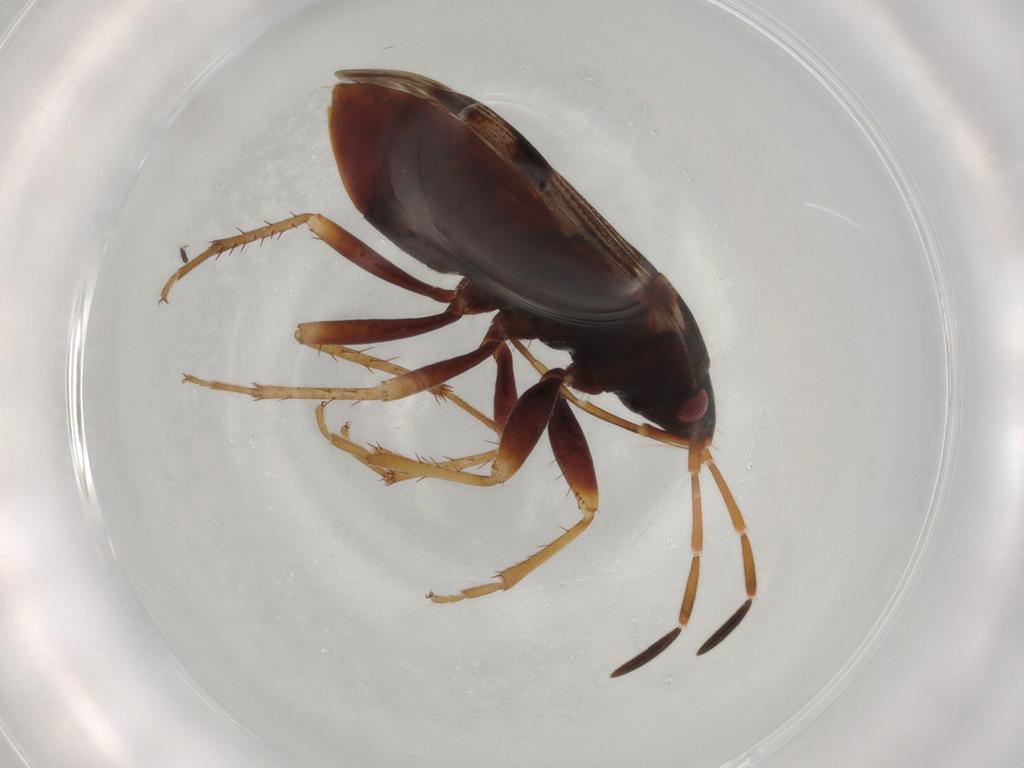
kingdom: Animalia
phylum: Arthropoda
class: Insecta
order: Hemiptera
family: Rhyparochromidae
